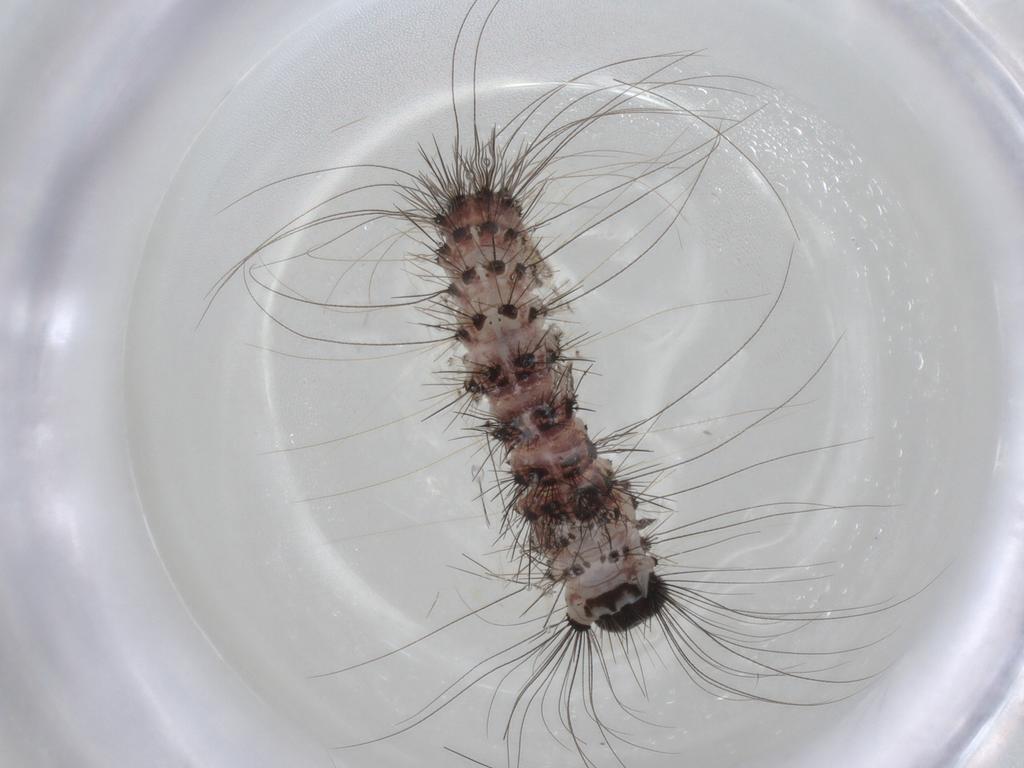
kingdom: Animalia
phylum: Arthropoda
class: Insecta
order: Lepidoptera
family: Erebidae
